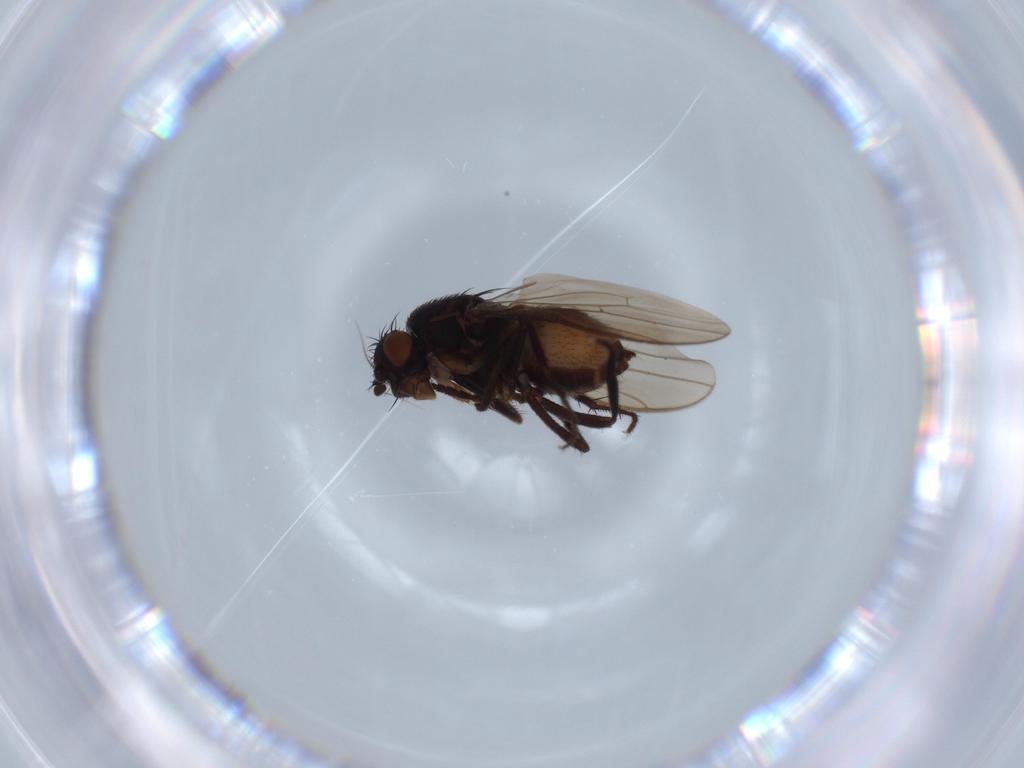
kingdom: Animalia
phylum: Arthropoda
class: Insecta
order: Diptera
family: Sphaeroceridae
